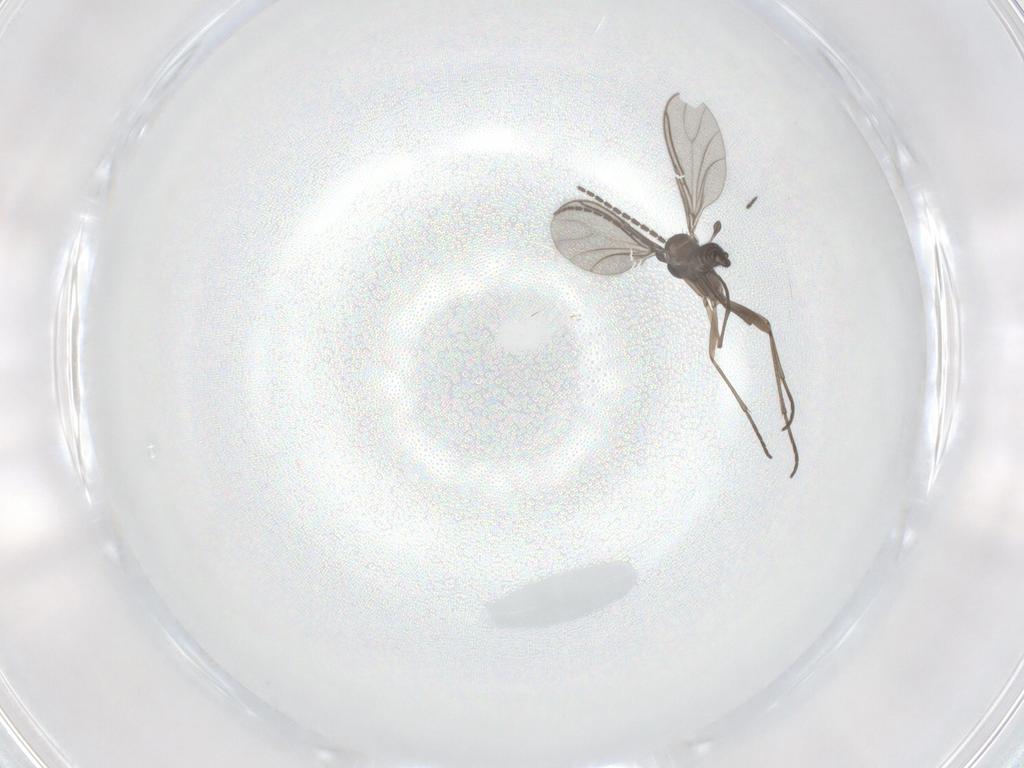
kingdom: Animalia
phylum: Arthropoda
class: Insecta
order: Diptera
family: Sciaridae
